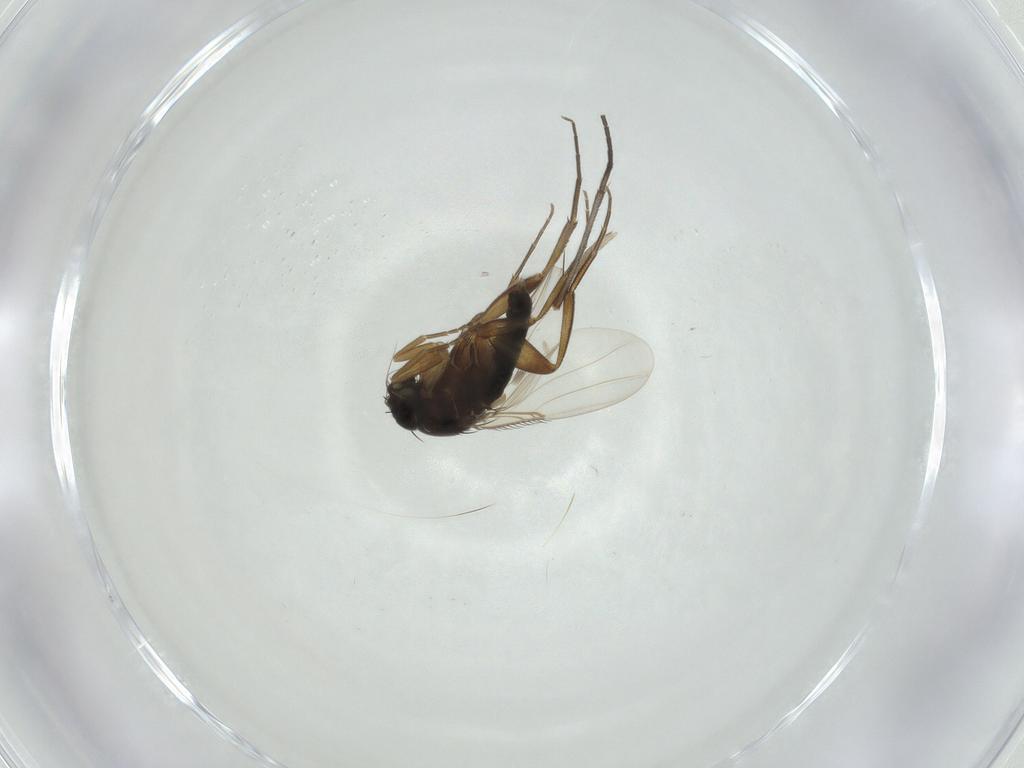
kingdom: Animalia
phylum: Arthropoda
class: Insecta
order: Diptera
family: Sciaridae
